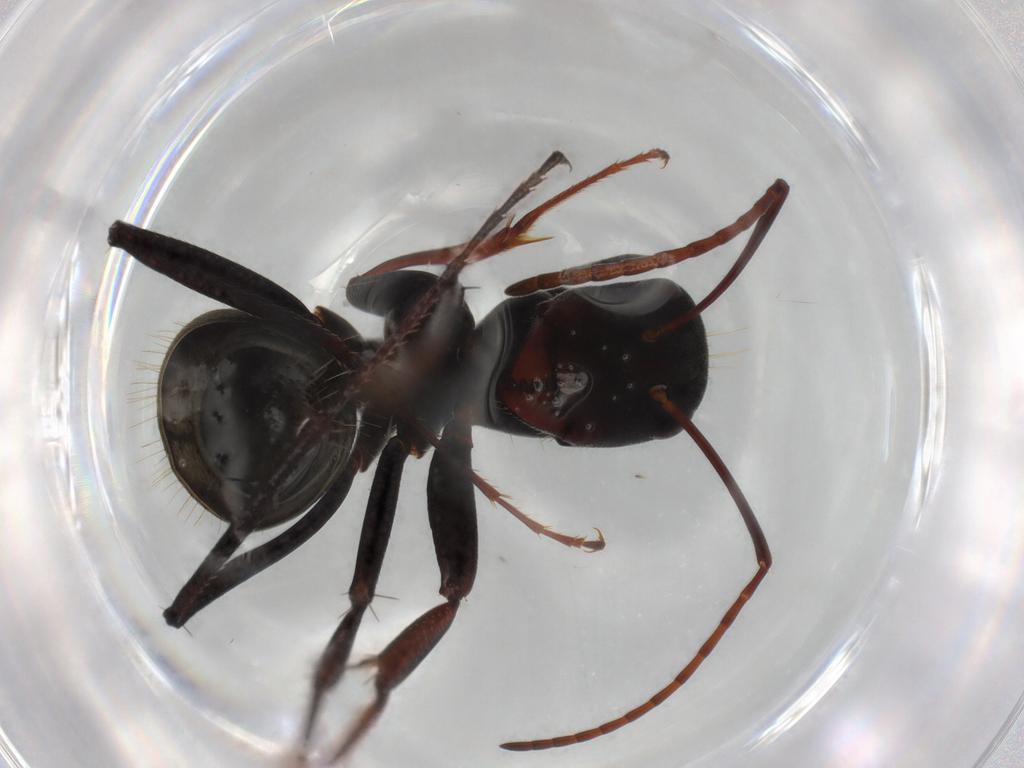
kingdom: Animalia
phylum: Arthropoda
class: Insecta
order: Hymenoptera
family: Formicidae
